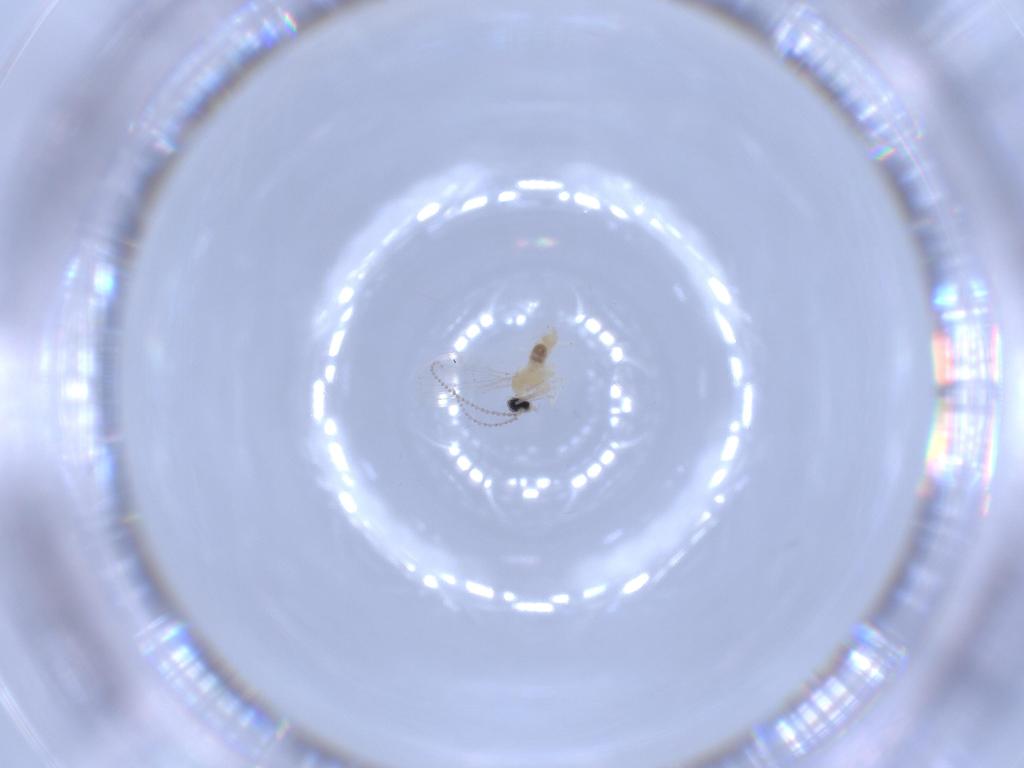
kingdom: Animalia
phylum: Arthropoda
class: Insecta
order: Diptera
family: Cecidomyiidae
